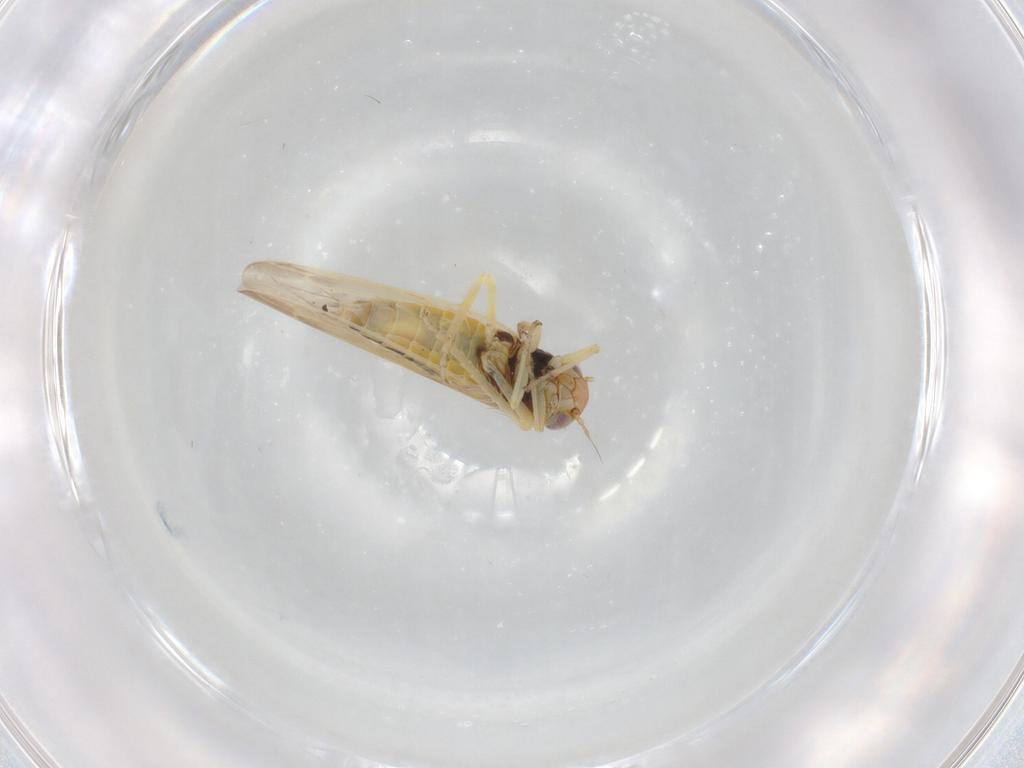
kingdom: Animalia
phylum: Arthropoda
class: Insecta
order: Hemiptera
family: Cicadellidae
